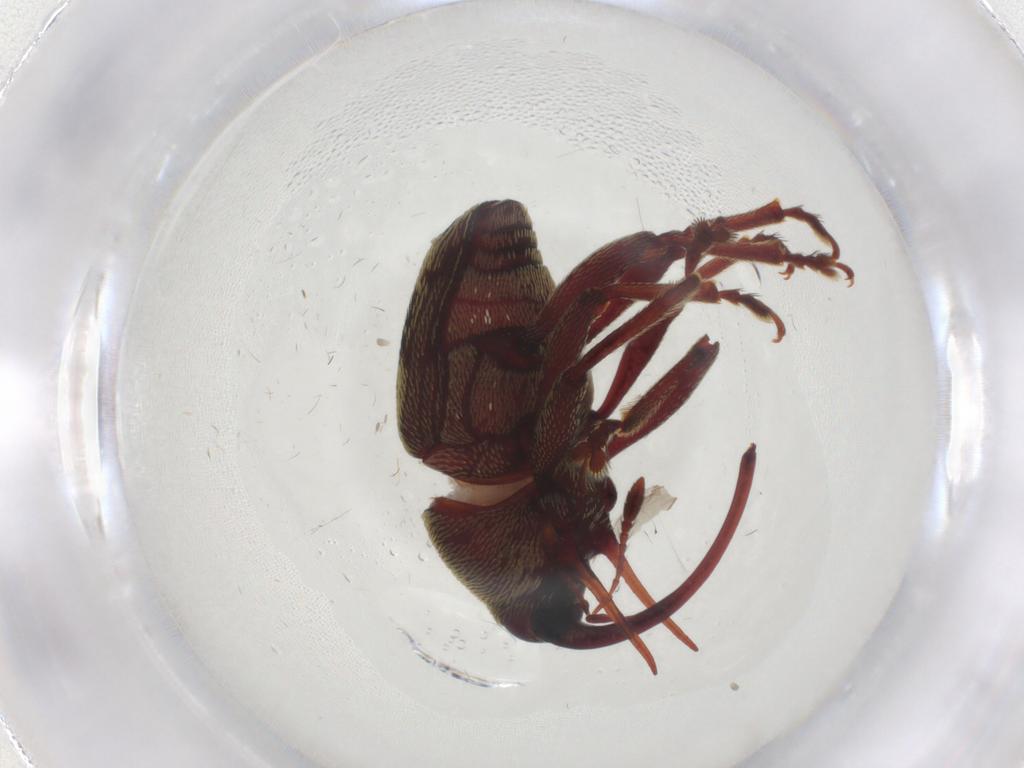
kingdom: Animalia
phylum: Arthropoda
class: Insecta
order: Coleoptera
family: Curculionidae
